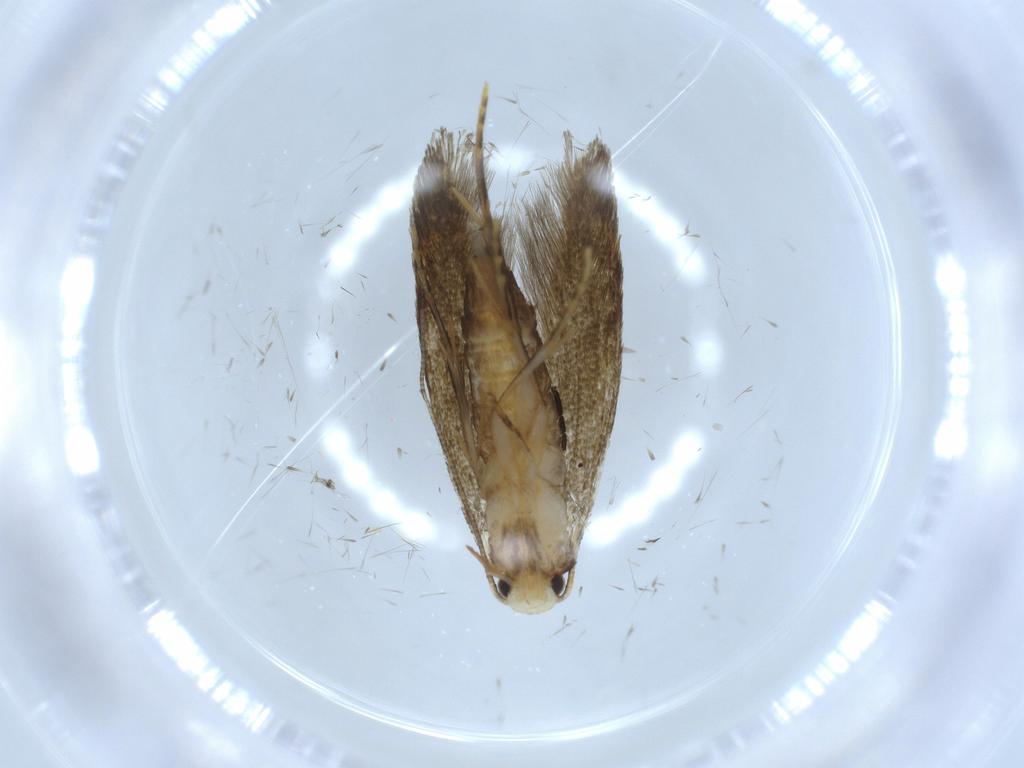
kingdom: Animalia
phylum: Arthropoda
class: Insecta
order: Lepidoptera
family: Tineidae
